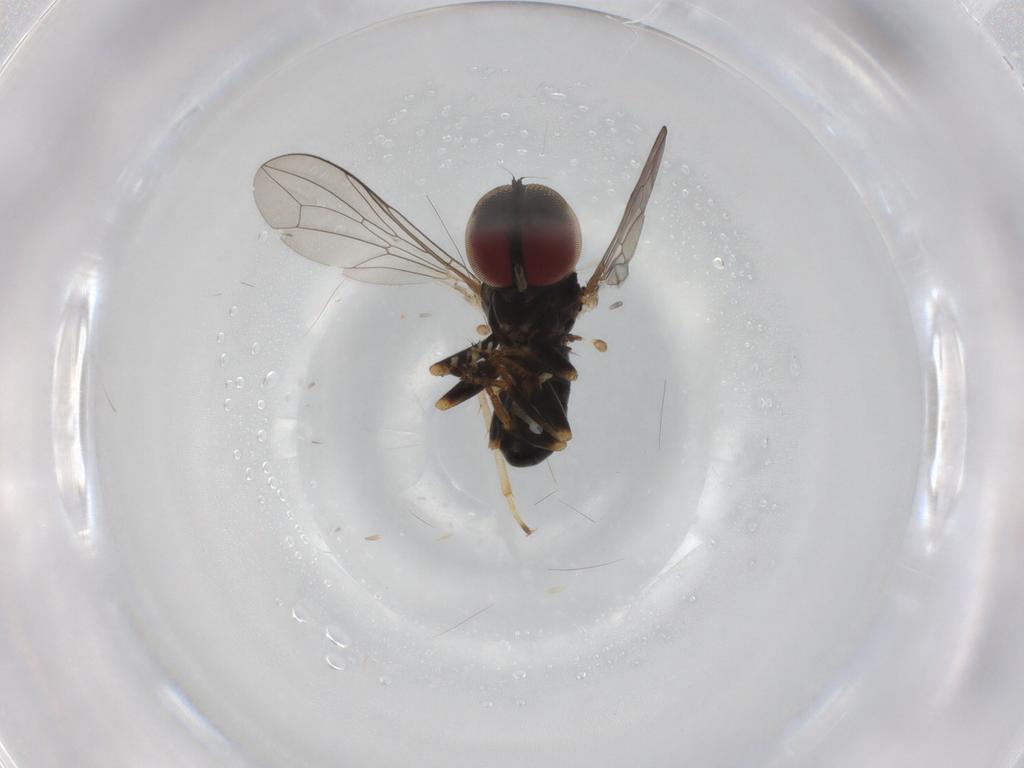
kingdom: Animalia
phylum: Arthropoda
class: Insecta
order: Diptera
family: Pipunculidae
